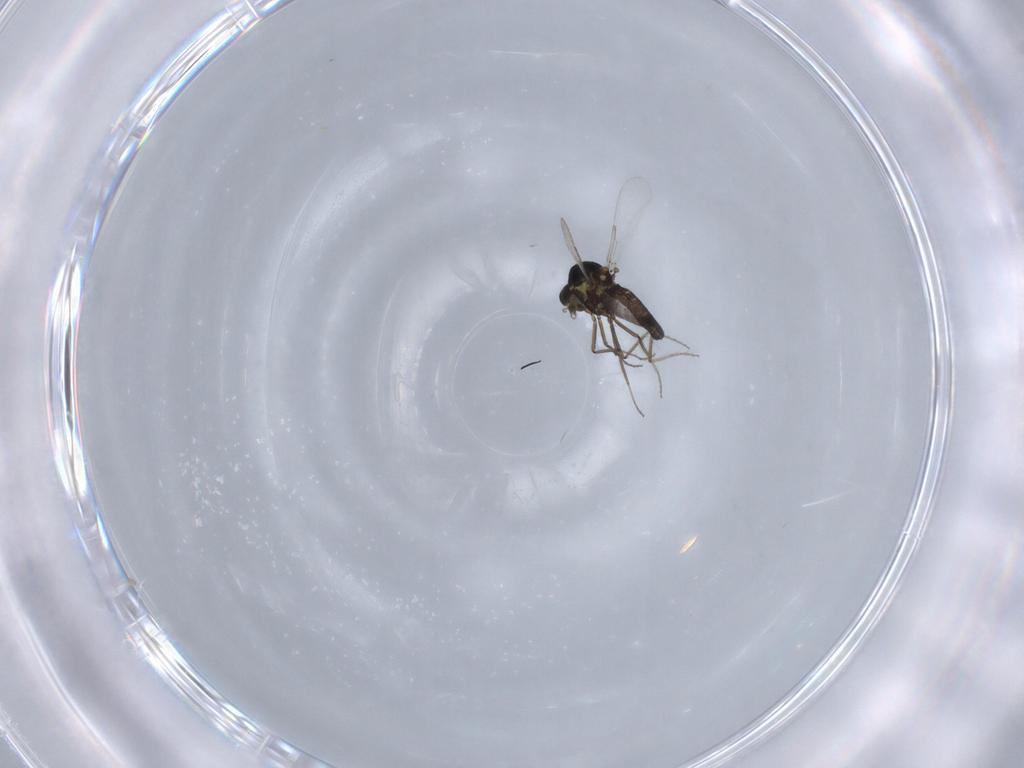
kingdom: Animalia
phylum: Arthropoda
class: Insecta
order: Diptera
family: Ceratopogonidae
